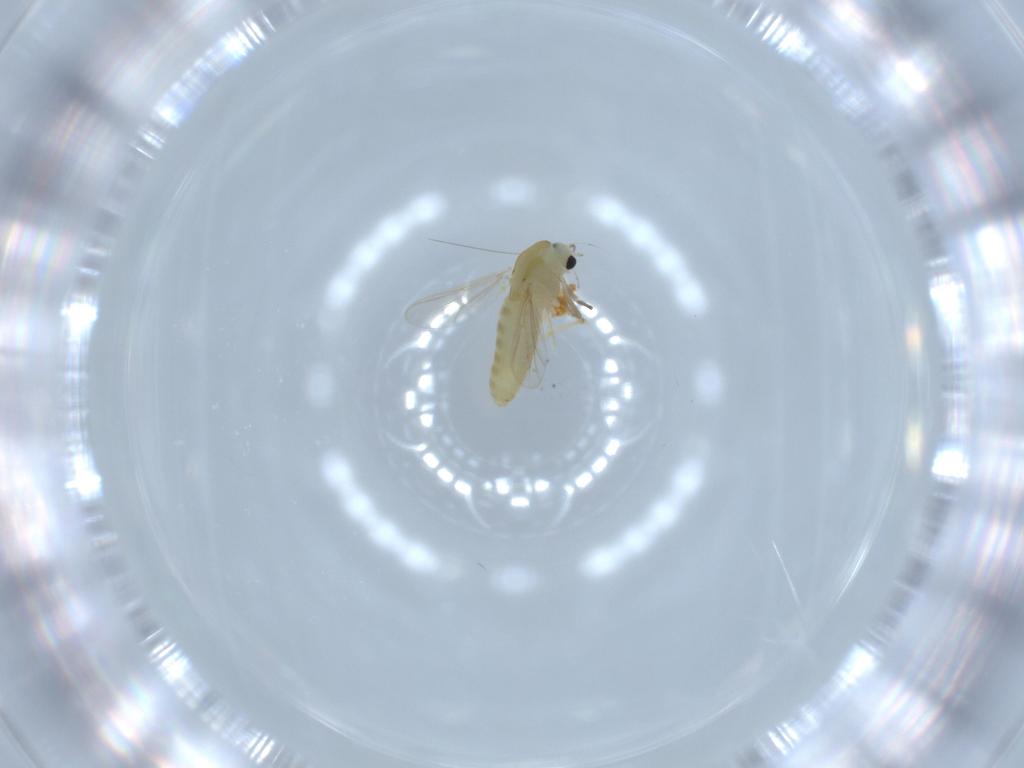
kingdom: Animalia
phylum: Arthropoda
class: Insecta
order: Diptera
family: Chironomidae
